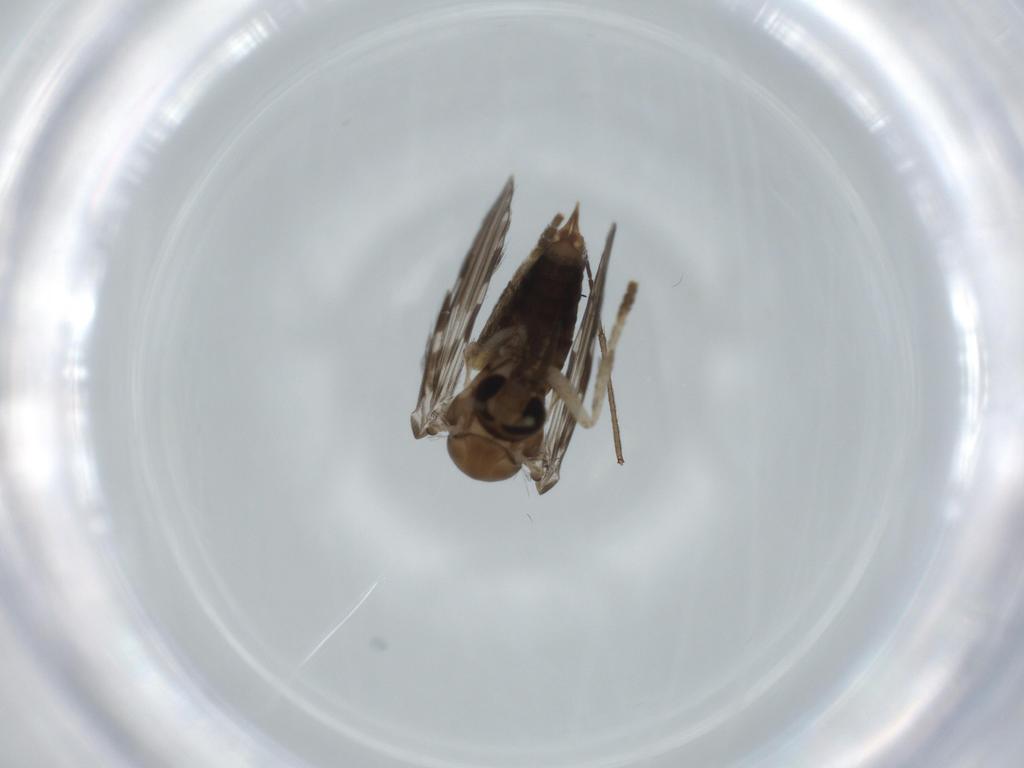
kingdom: Animalia
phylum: Arthropoda
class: Insecta
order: Diptera
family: Psychodidae
